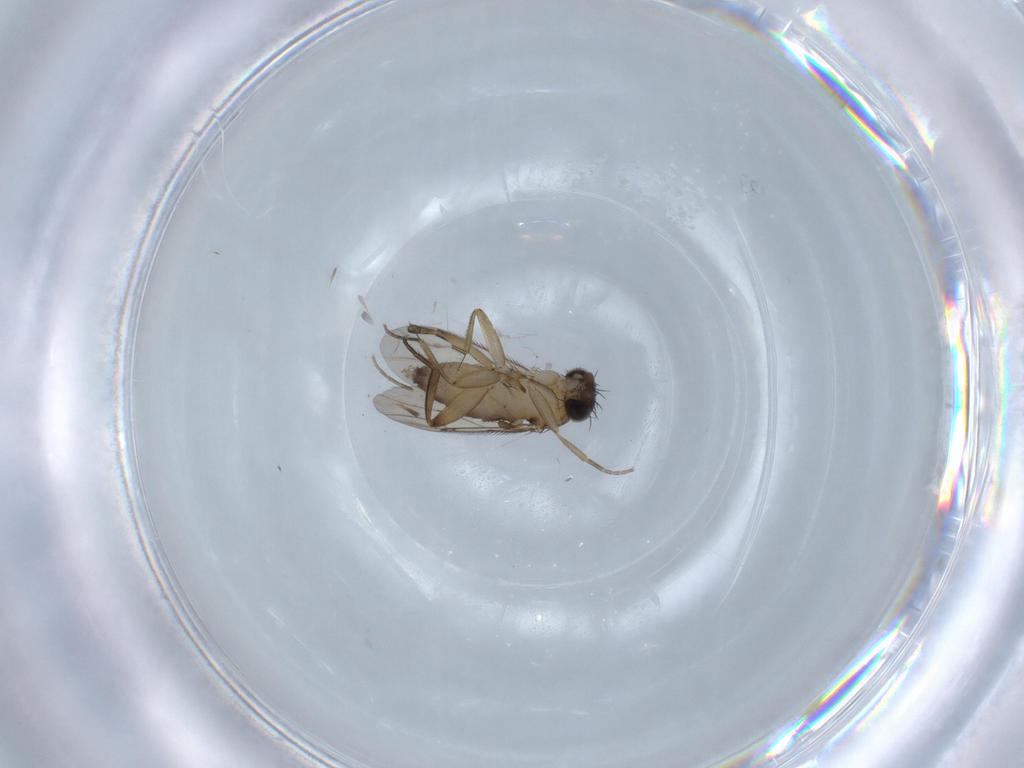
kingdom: Animalia
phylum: Arthropoda
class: Insecta
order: Diptera
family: Phoridae
